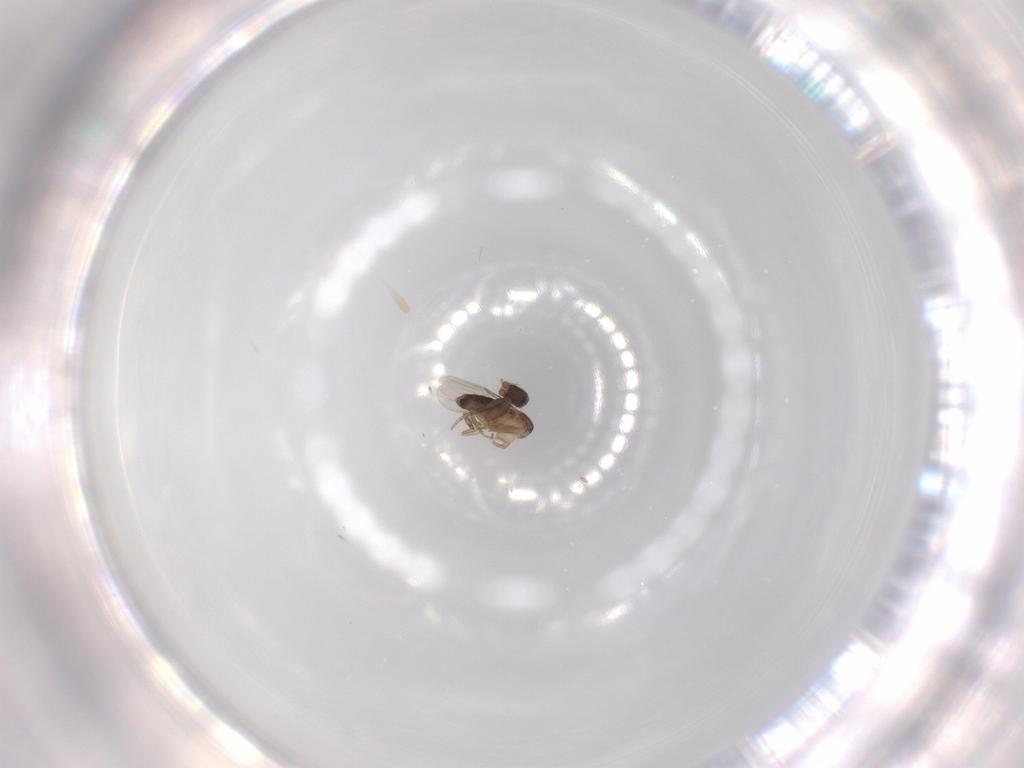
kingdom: Animalia
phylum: Arthropoda
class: Insecta
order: Diptera
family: Phoridae
